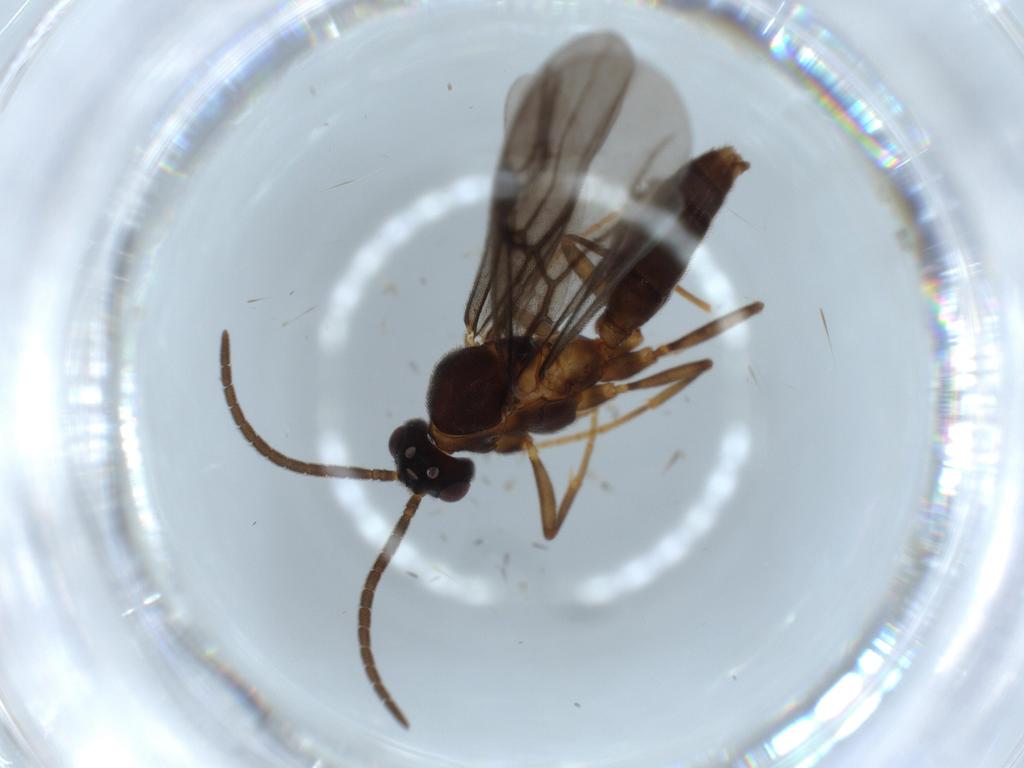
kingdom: Animalia
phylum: Arthropoda
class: Insecta
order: Hymenoptera
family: Formicidae
